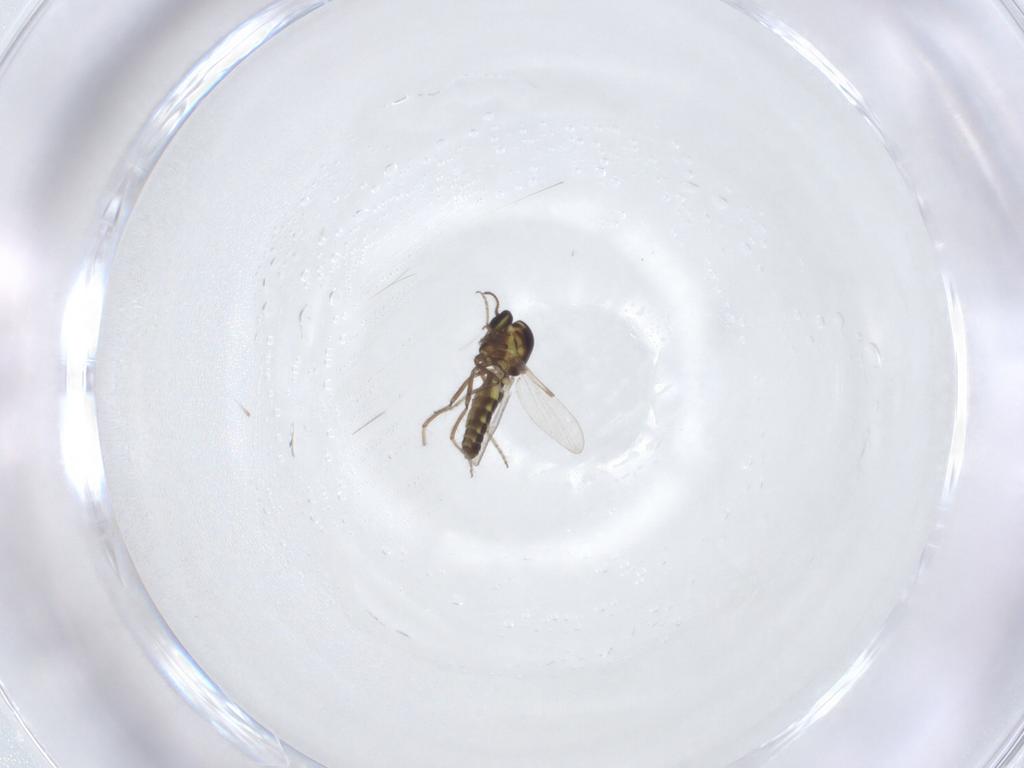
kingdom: Animalia
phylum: Arthropoda
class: Insecta
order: Diptera
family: Ceratopogonidae
